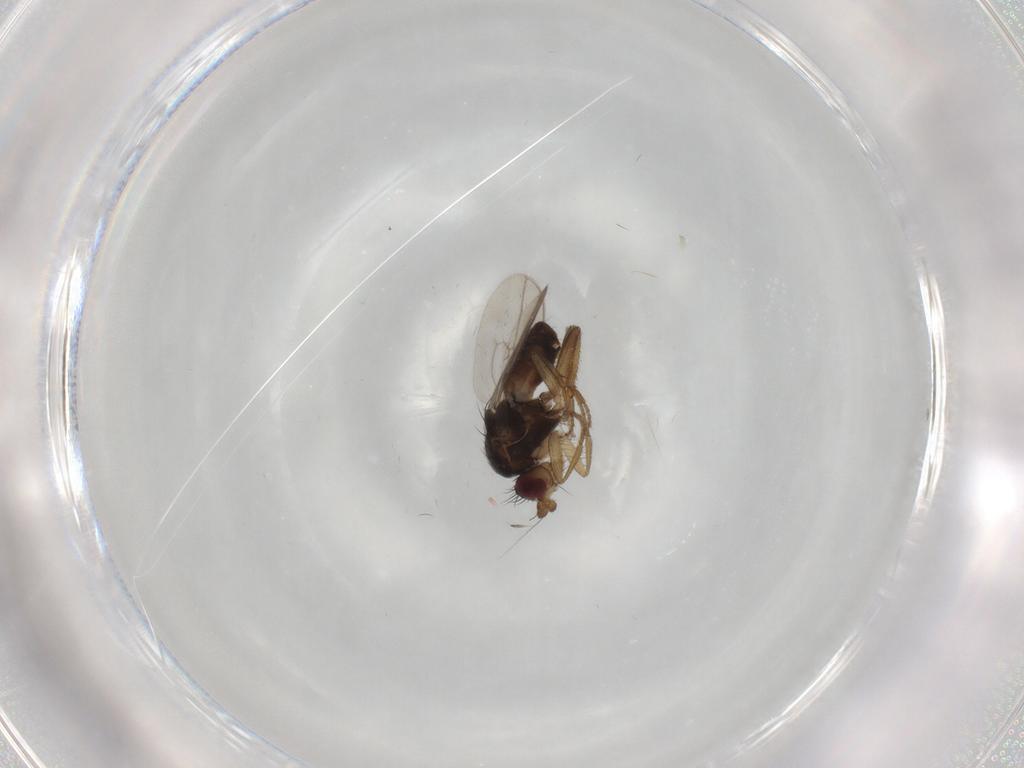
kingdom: Animalia
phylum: Arthropoda
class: Insecta
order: Diptera
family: Sphaeroceridae
